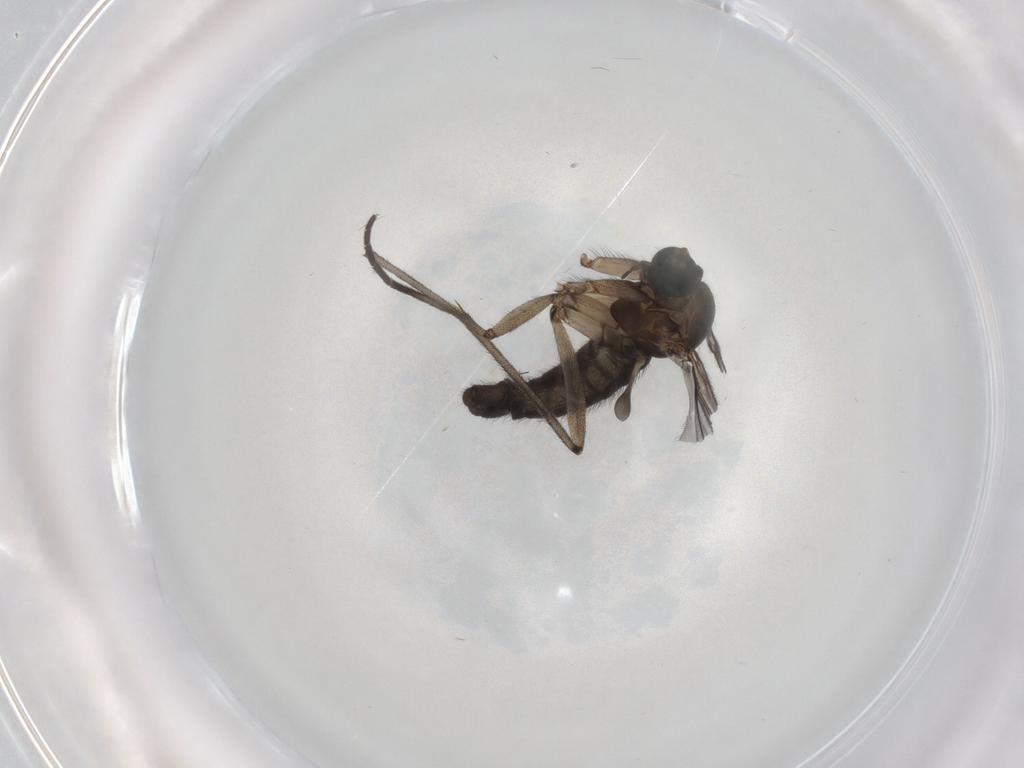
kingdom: Animalia
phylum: Arthropoda
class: Insecta
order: Diptera
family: Sciaridae
